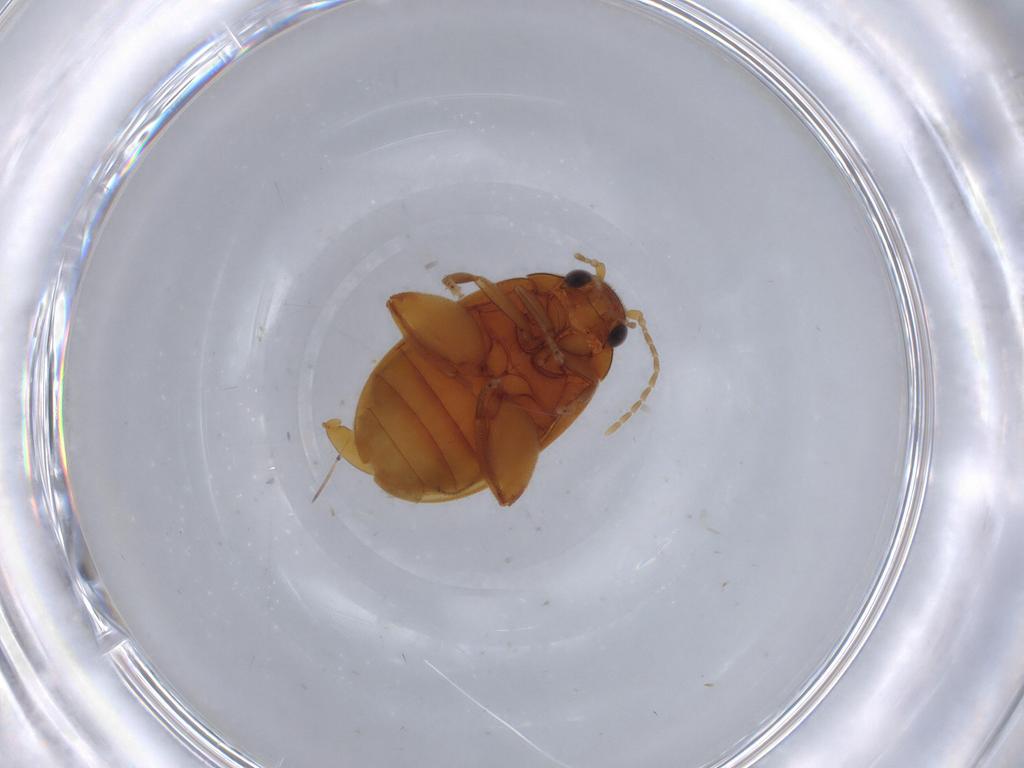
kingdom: Animalia
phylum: Arthropoda
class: Insecta
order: Coleoptera
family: Scirtidae
